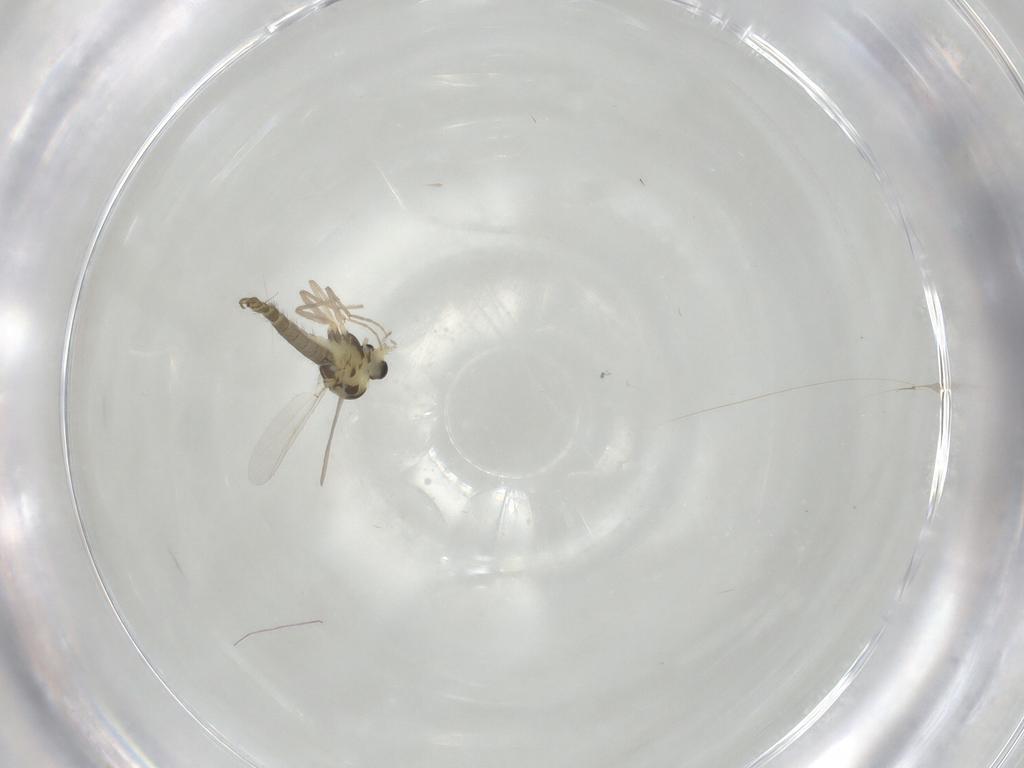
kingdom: Animalia
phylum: Arthropoda
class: Insecta
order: Diptera
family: Chironomidae
